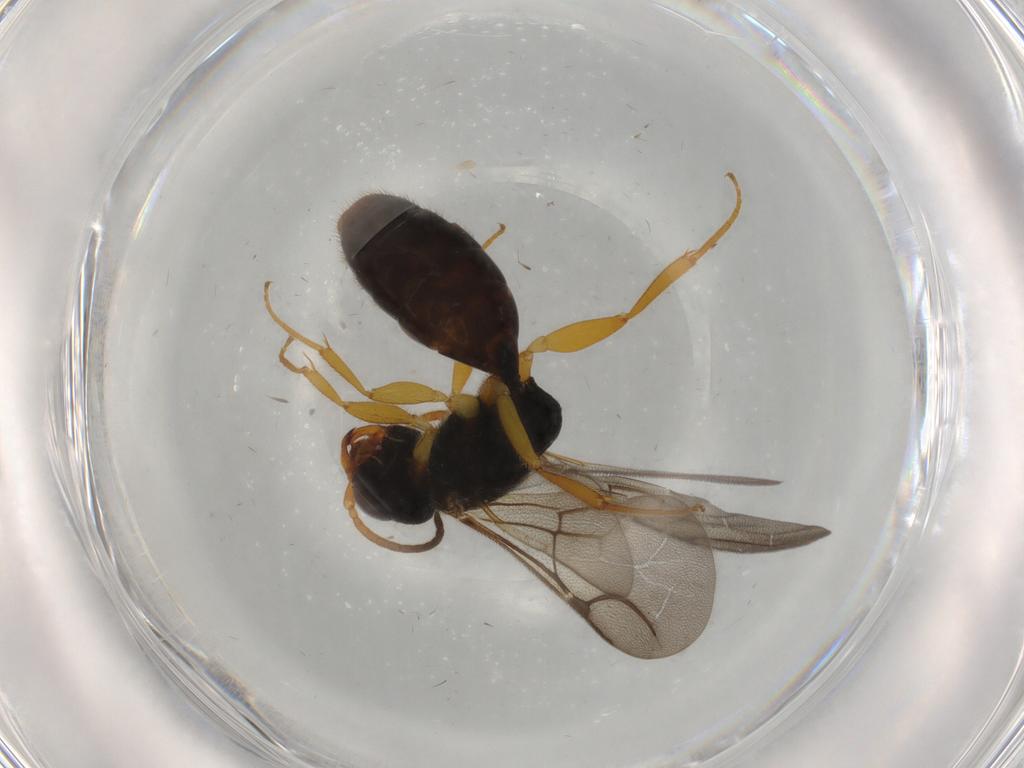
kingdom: Animalia
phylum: Arthropoda
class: Insecta
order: Hymenoptera
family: Bethylidae
